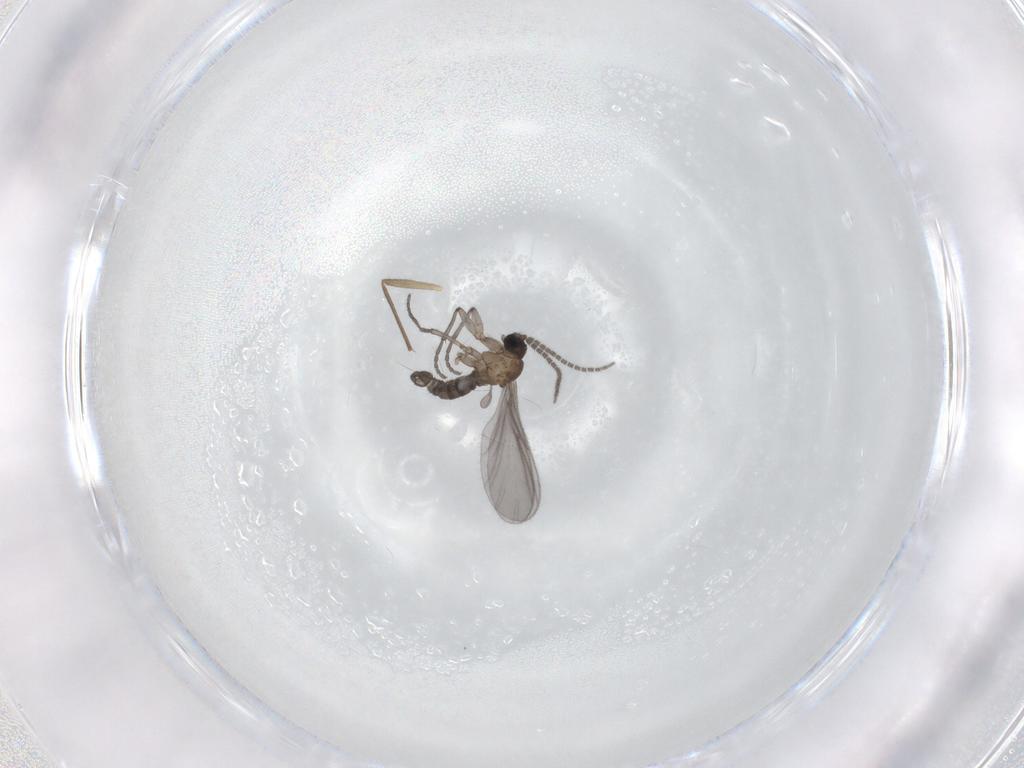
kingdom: Animalia
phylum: Arthropoda
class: Insecta
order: Diptera
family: Sciaridae
